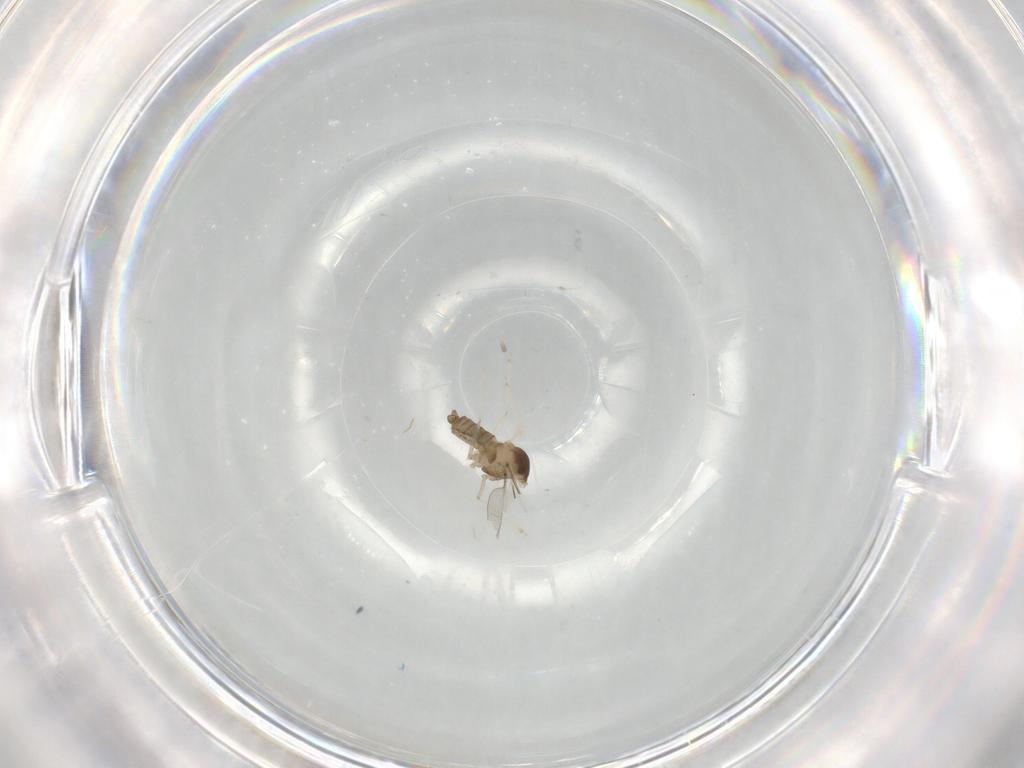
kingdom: Animalia
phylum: Arthropoda
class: Insecta
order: Diptera
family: Cecidomyiidae
